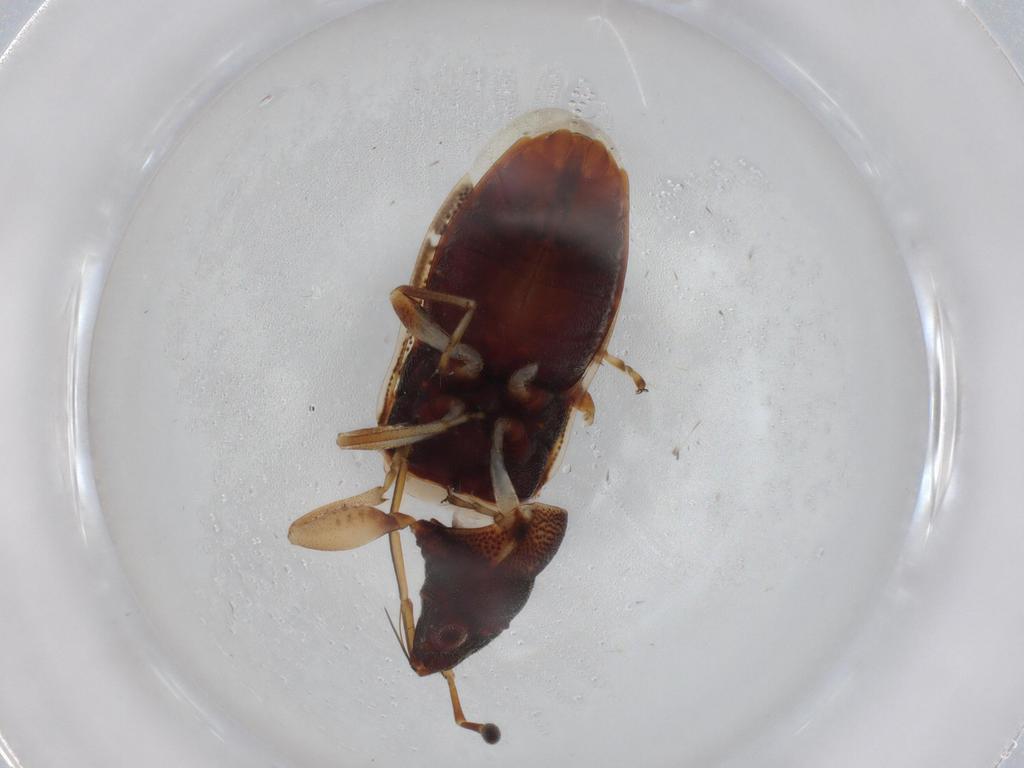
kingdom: Animalia
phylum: Arthropoda
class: Insecta
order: Hemiptera
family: Rhyparochromidae
